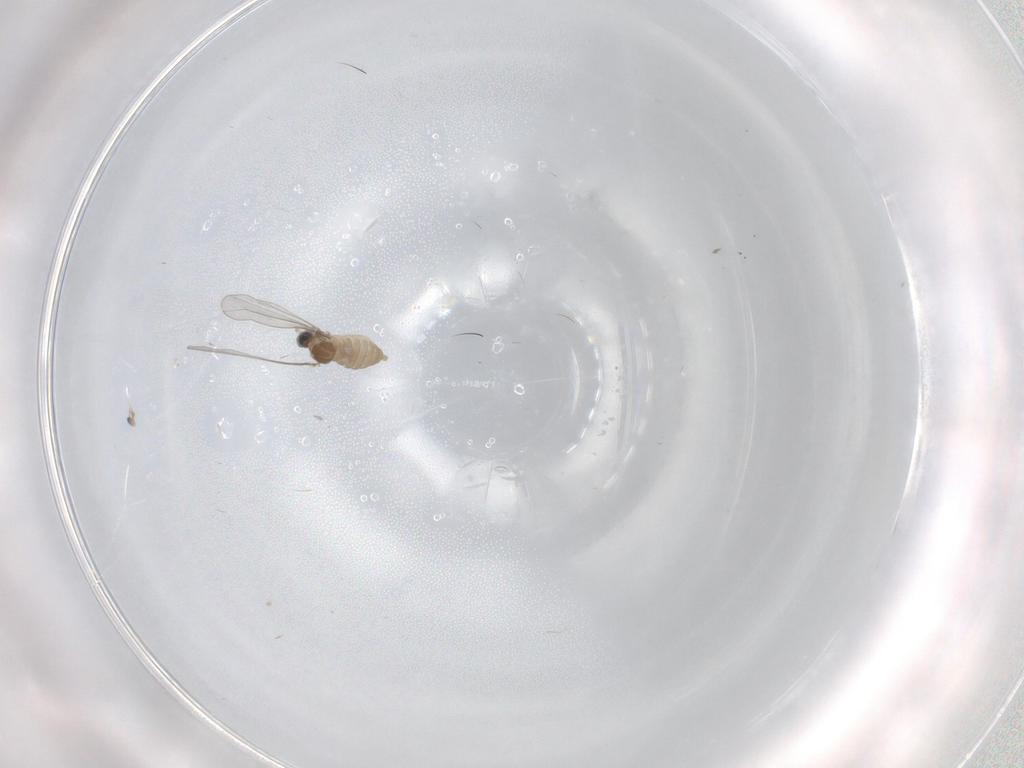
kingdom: Animalia
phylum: Arthropoda
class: Insecta
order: Diptera
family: Cecidomyiidae
